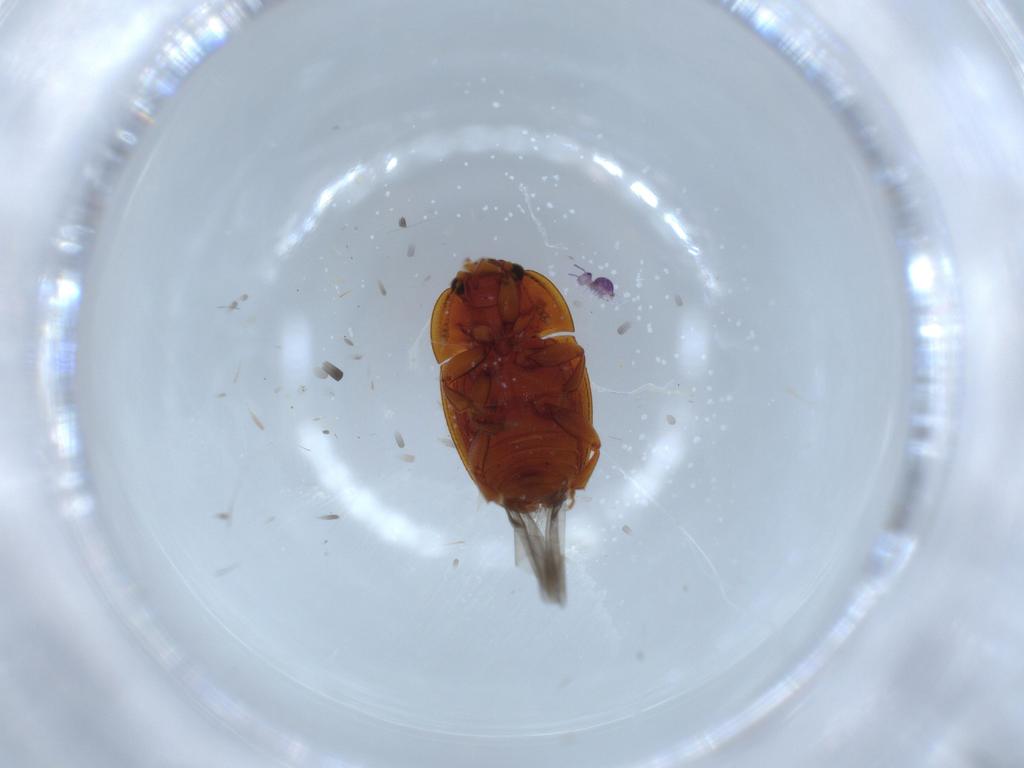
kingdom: Animalia
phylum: Arthropoda
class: Collembola
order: Symphypleona
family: Sminthurididae
